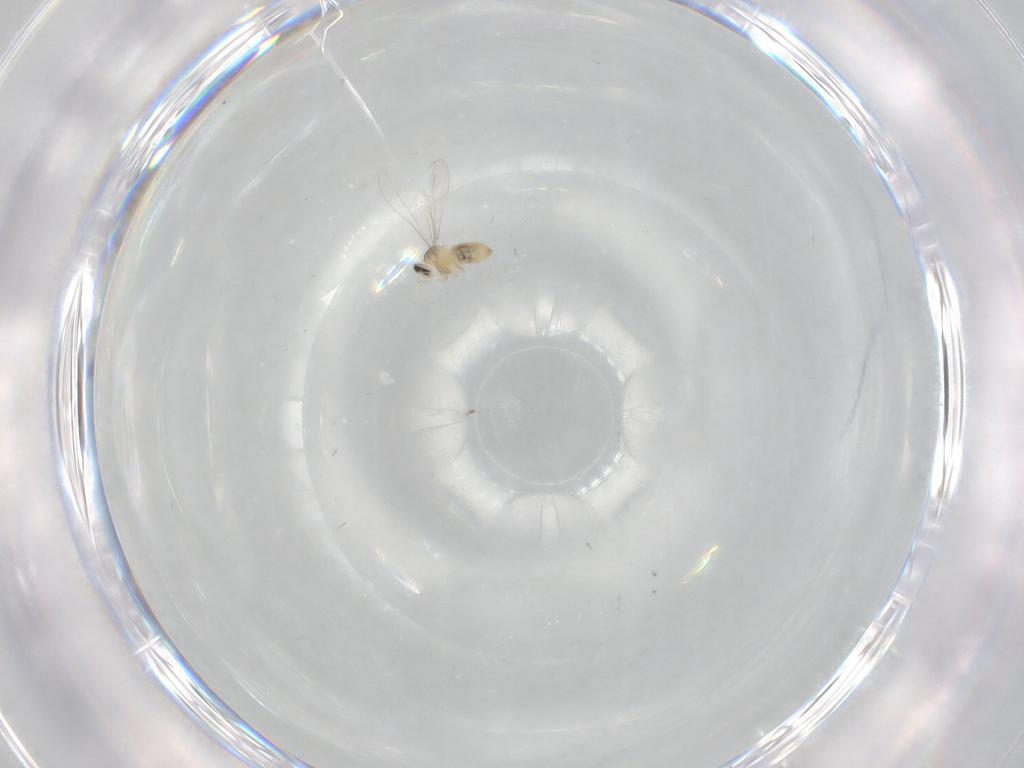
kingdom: Animalia
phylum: Arthropoda
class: Insecta
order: Diptera
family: Cecidomyiidae
